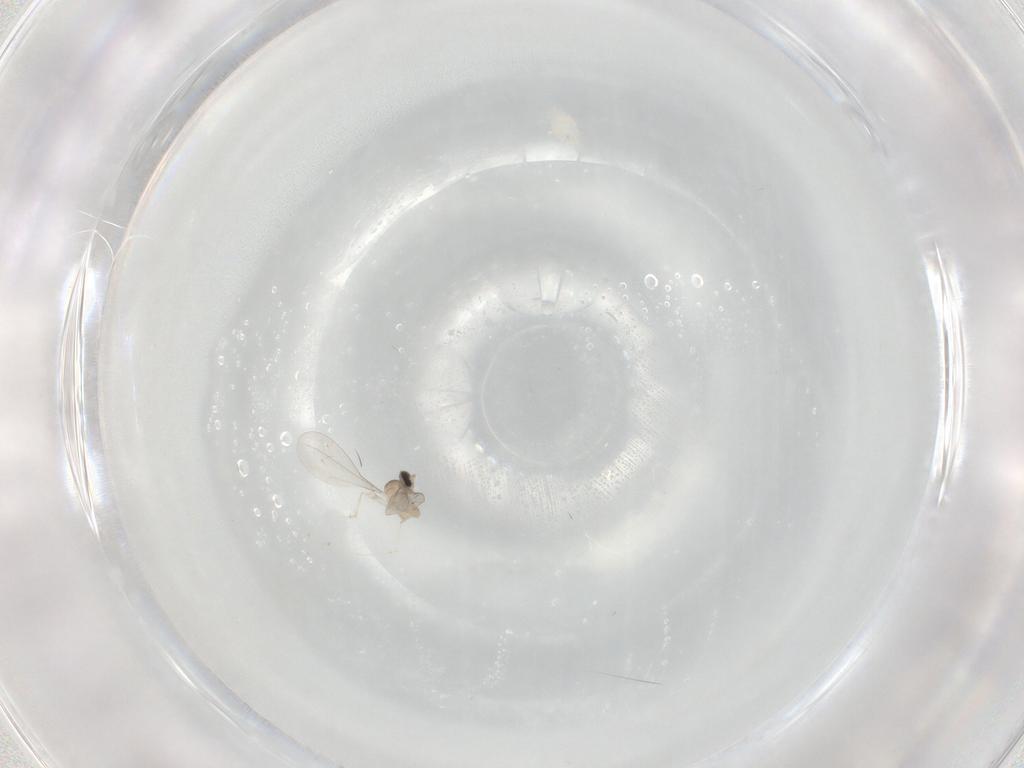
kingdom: Animalia
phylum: Arthropoda
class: Insecta
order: Diptera
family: Cecidomyiidae
